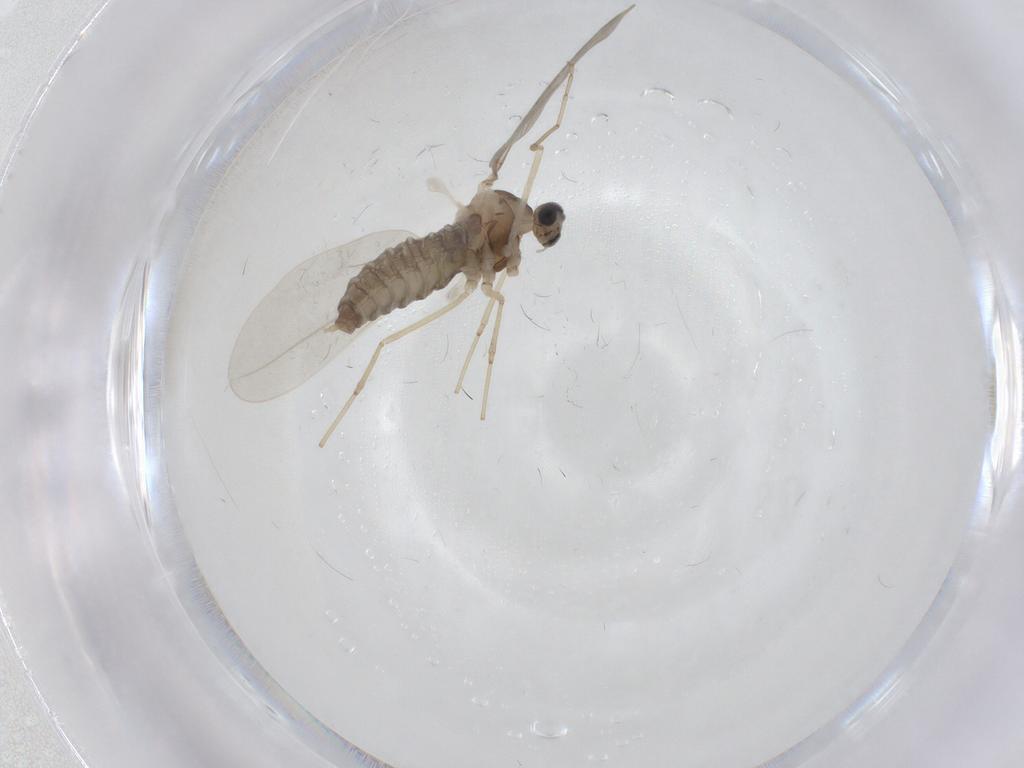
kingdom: Animalia
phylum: Arthropoda
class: Insecta
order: Diptera
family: Cecidomyiidae
